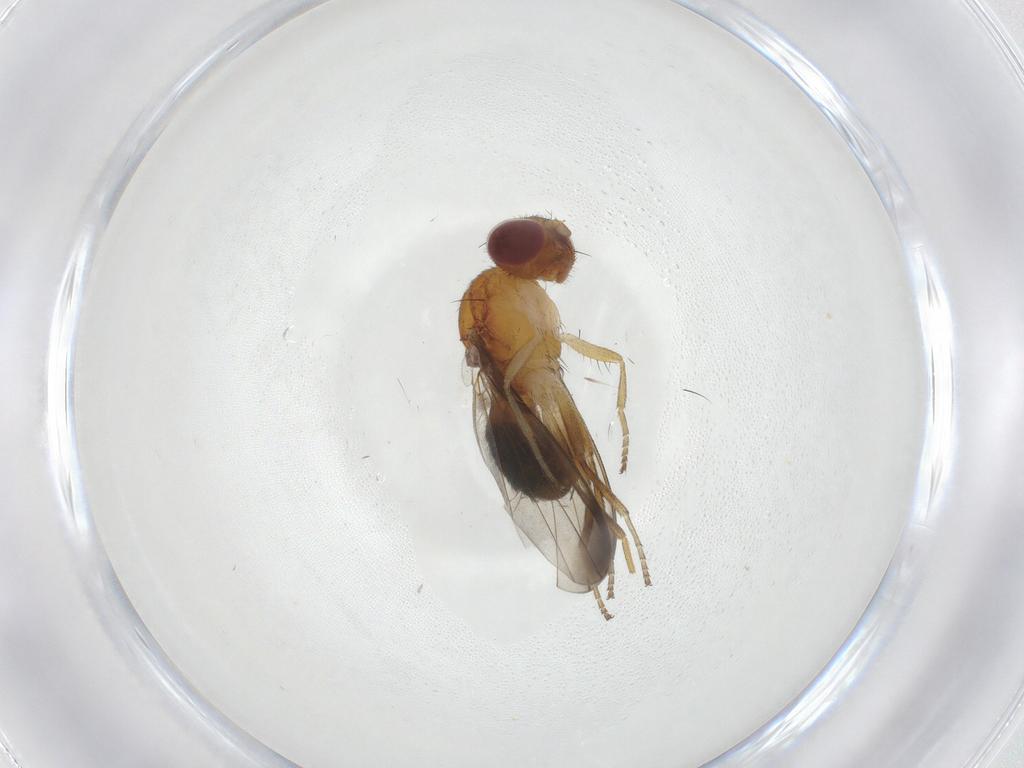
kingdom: Animalia
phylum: Arthropoda
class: Insecta
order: Diptera
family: Piophilidae
